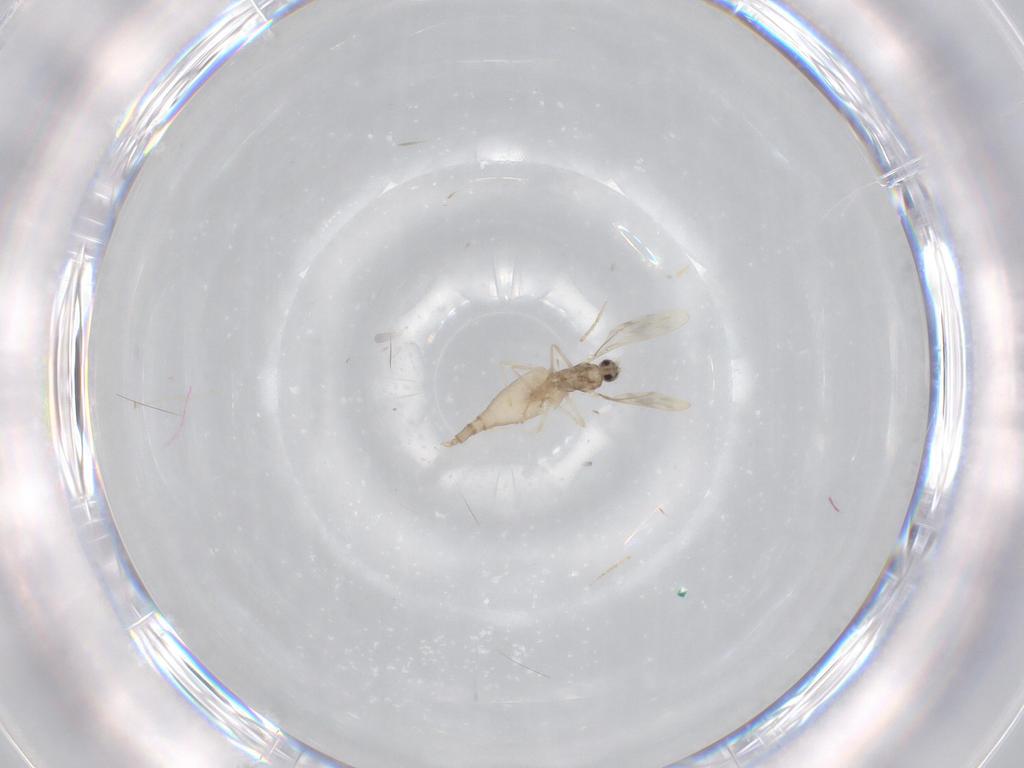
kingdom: Animalia
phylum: Arthropoda
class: Insecta
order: Diptera
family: Cecidomyiidae
